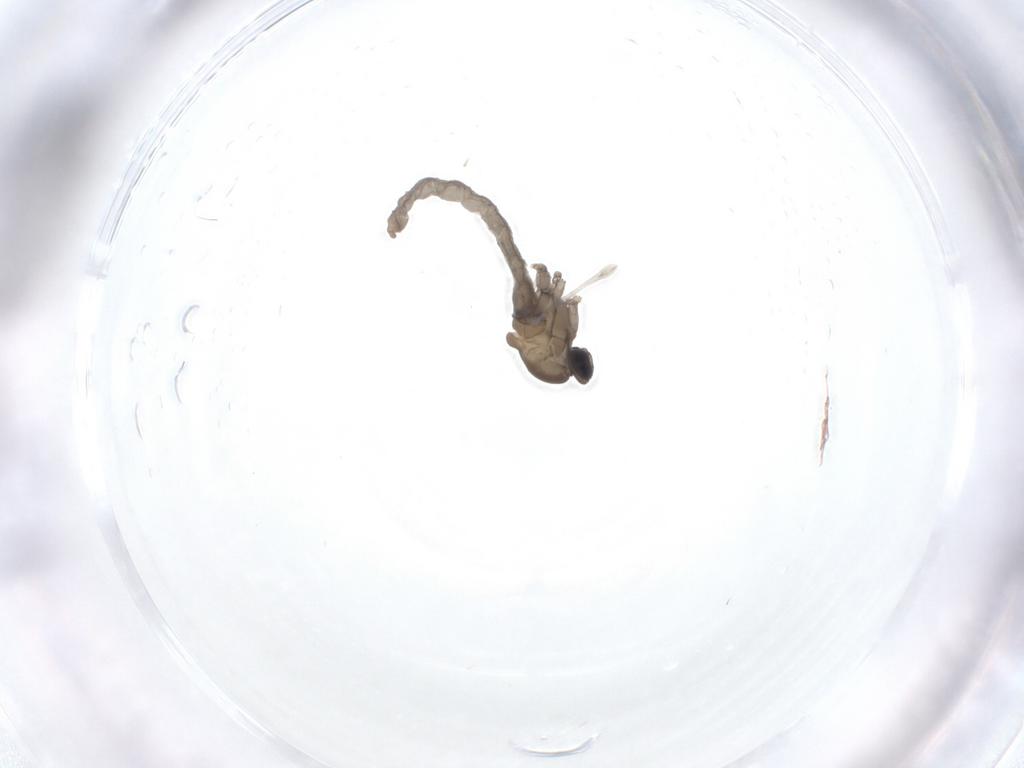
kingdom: Animalia
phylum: Arthropoda
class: Insecta
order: Diptera
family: Cecidomyiidae
